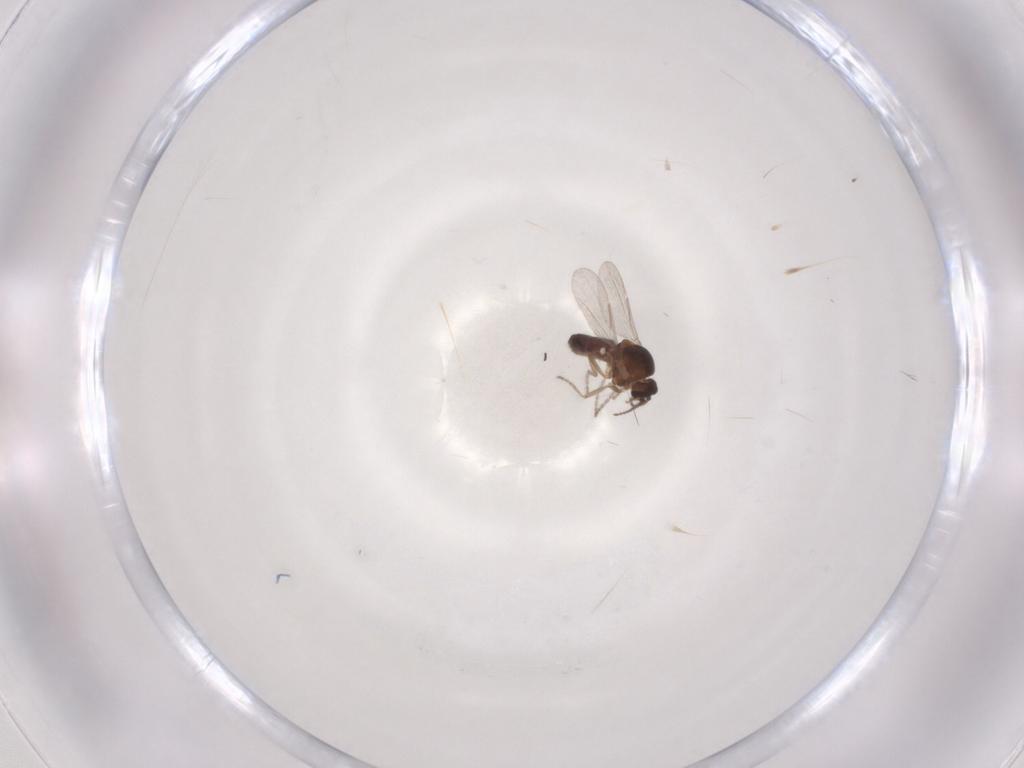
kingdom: Animalia
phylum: Arthropoda
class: Insecta
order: Diptera
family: Ceratopogonidae
